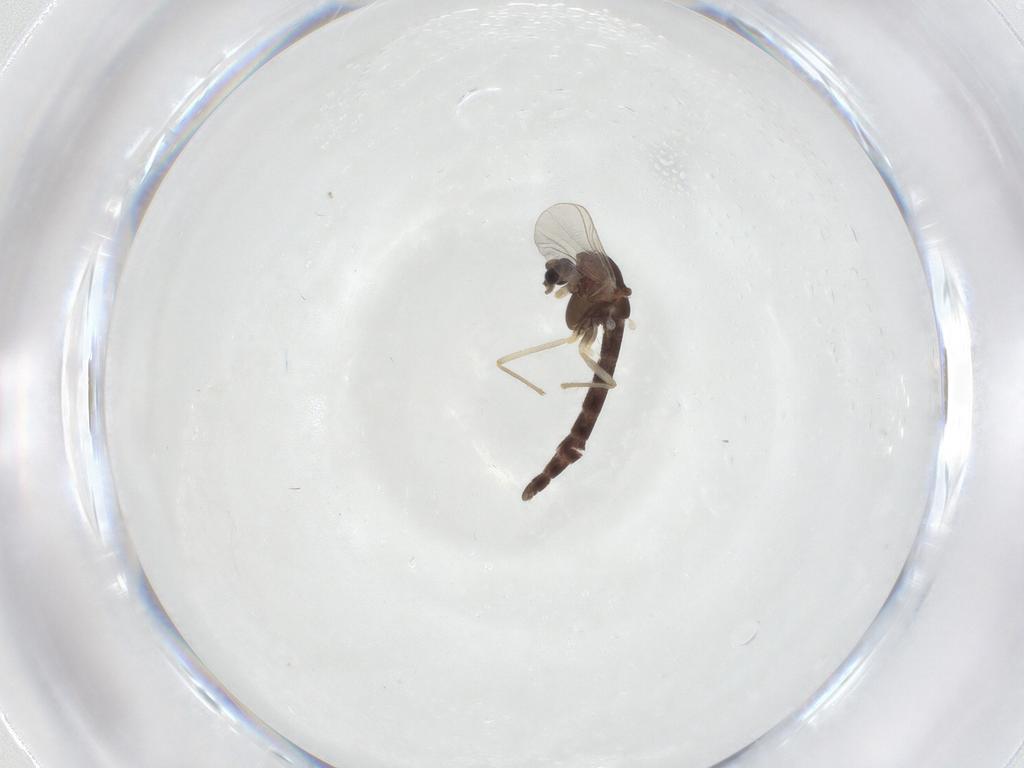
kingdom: Animalia
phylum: Arthropoda
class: Insecta
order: Diptera
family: Chironomidae
